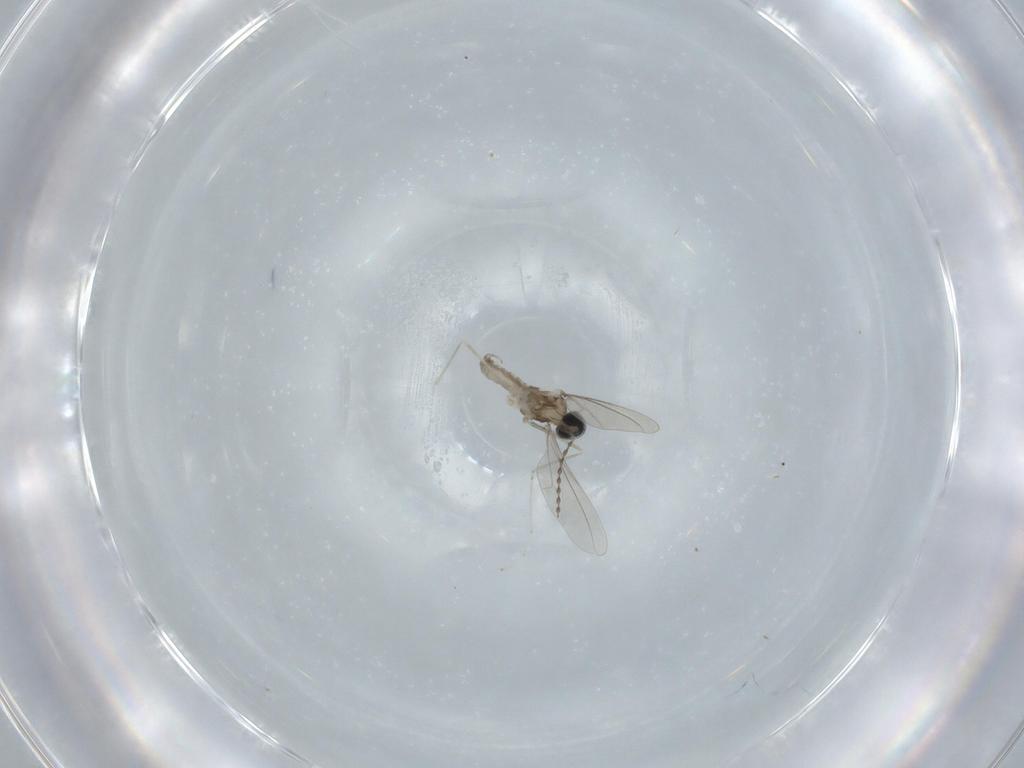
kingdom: Animalia
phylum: Arthropoda
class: Insecta
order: Diptera
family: Cecidomyiidae
